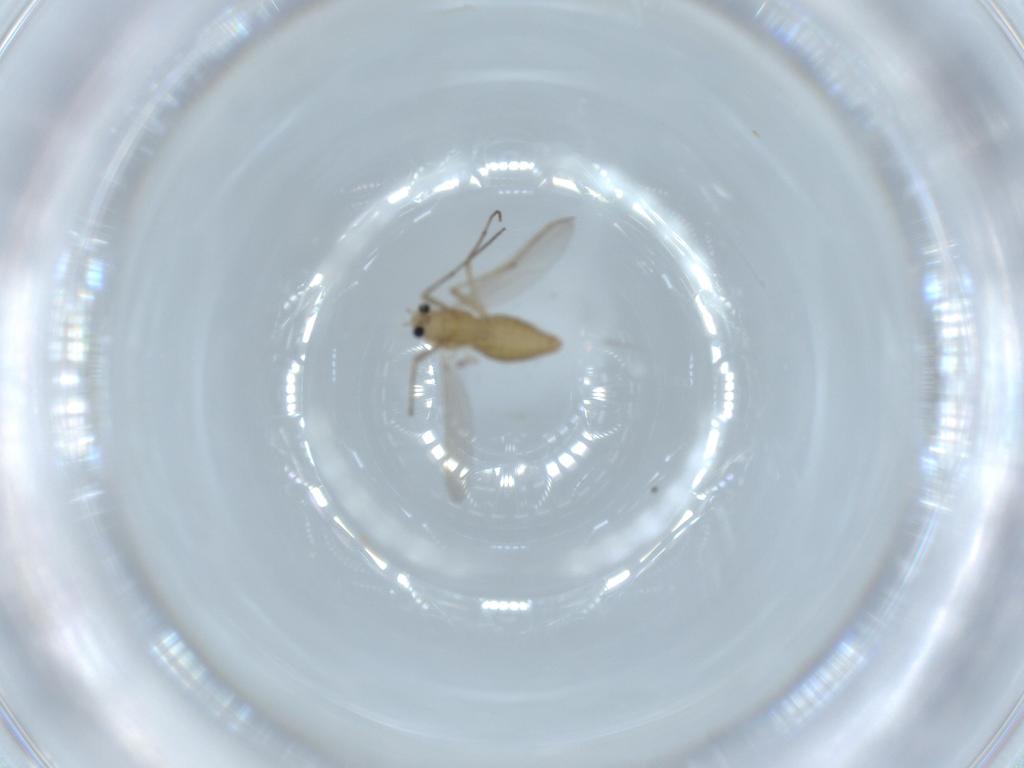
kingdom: Animalia
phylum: Arthropoda
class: Insecta
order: Diptera
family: Chironomidae
